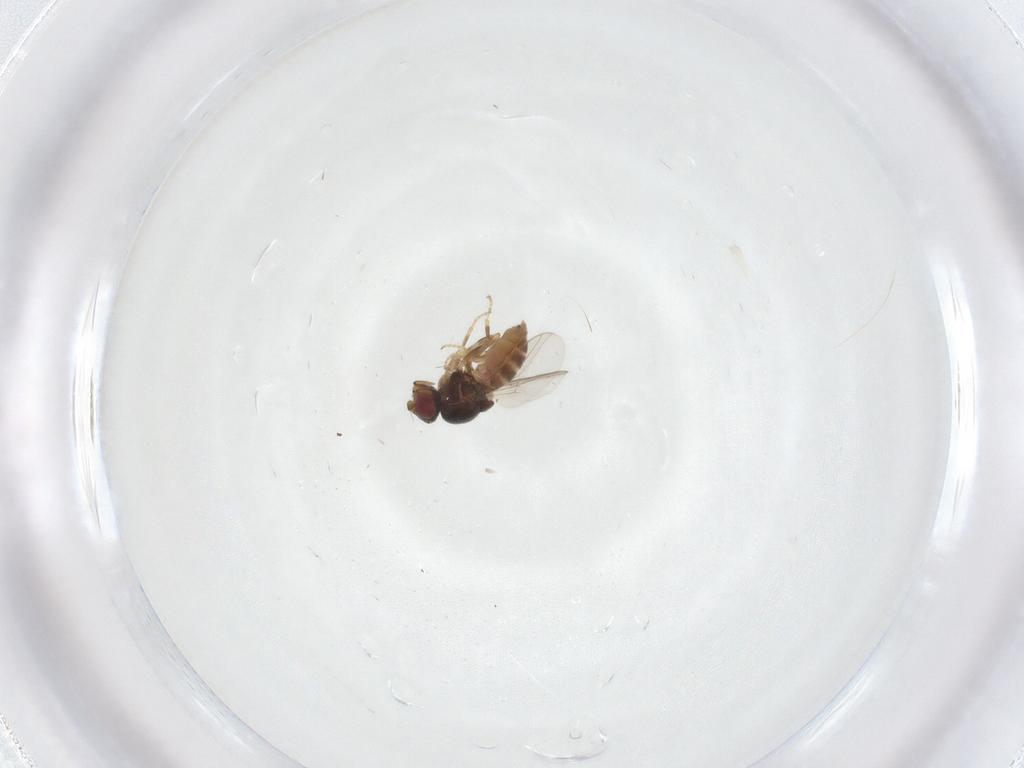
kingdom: Animalia
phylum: Arthropoda
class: Insecta
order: Diptera
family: Chloropidae
